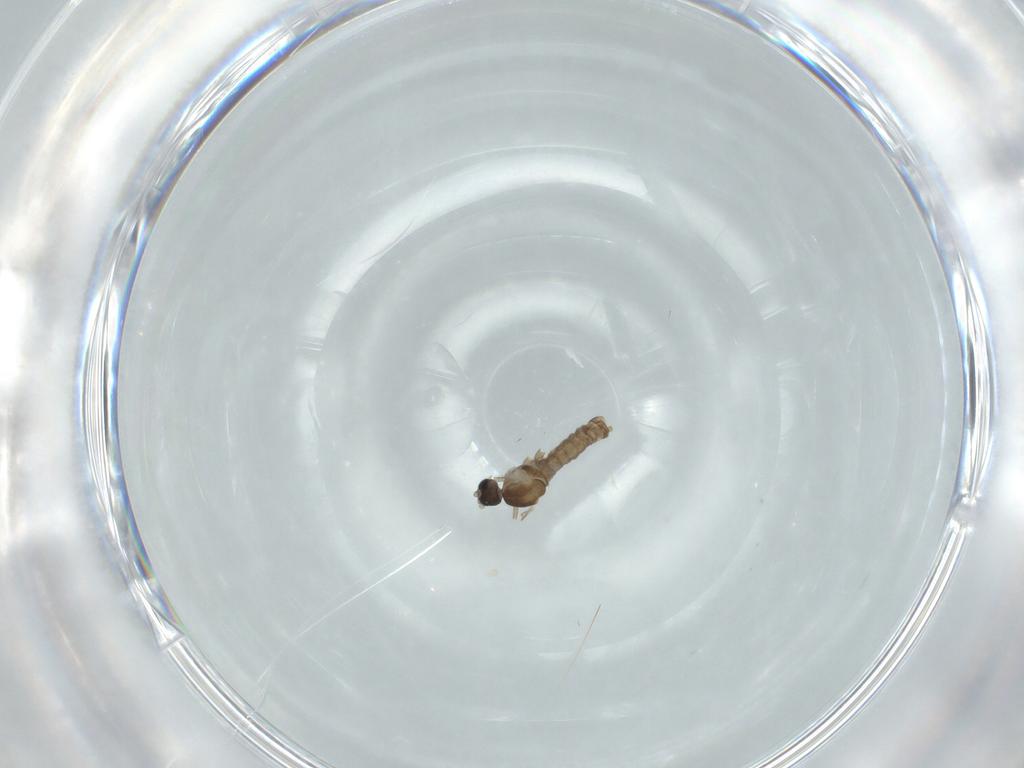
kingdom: Animalia
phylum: Arthropoda
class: Insecta
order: Diptera
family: Cecidomyiidae
